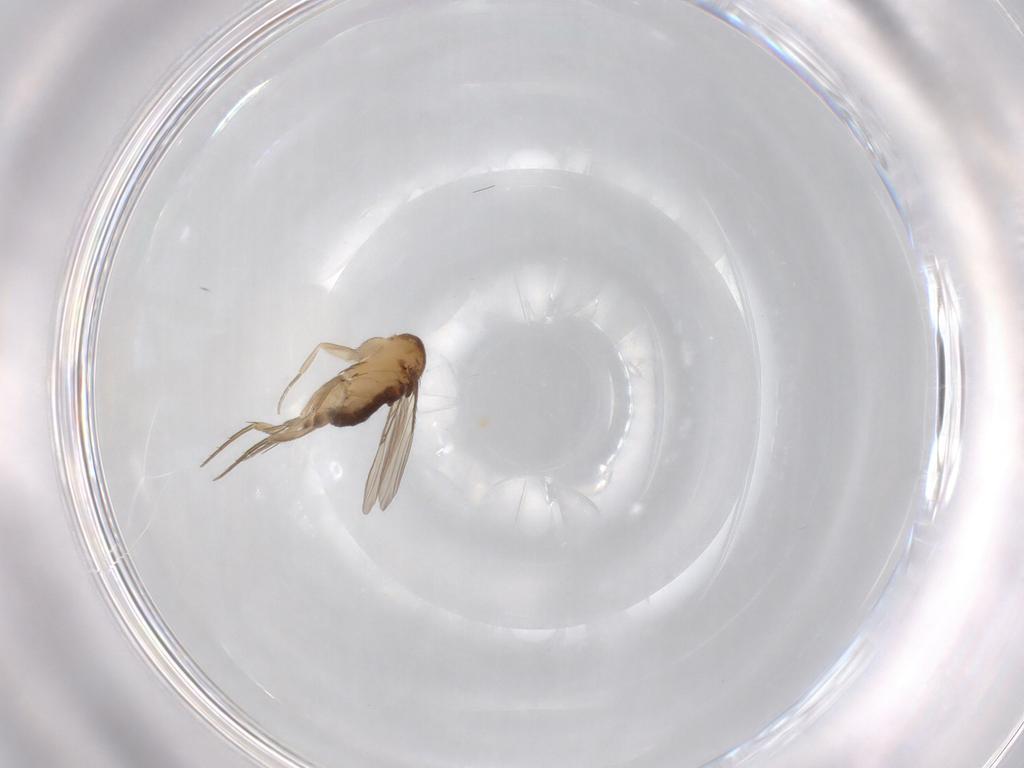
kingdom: Animalia
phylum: Arthropoda
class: Insecta
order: Diptera
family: Phoridae
